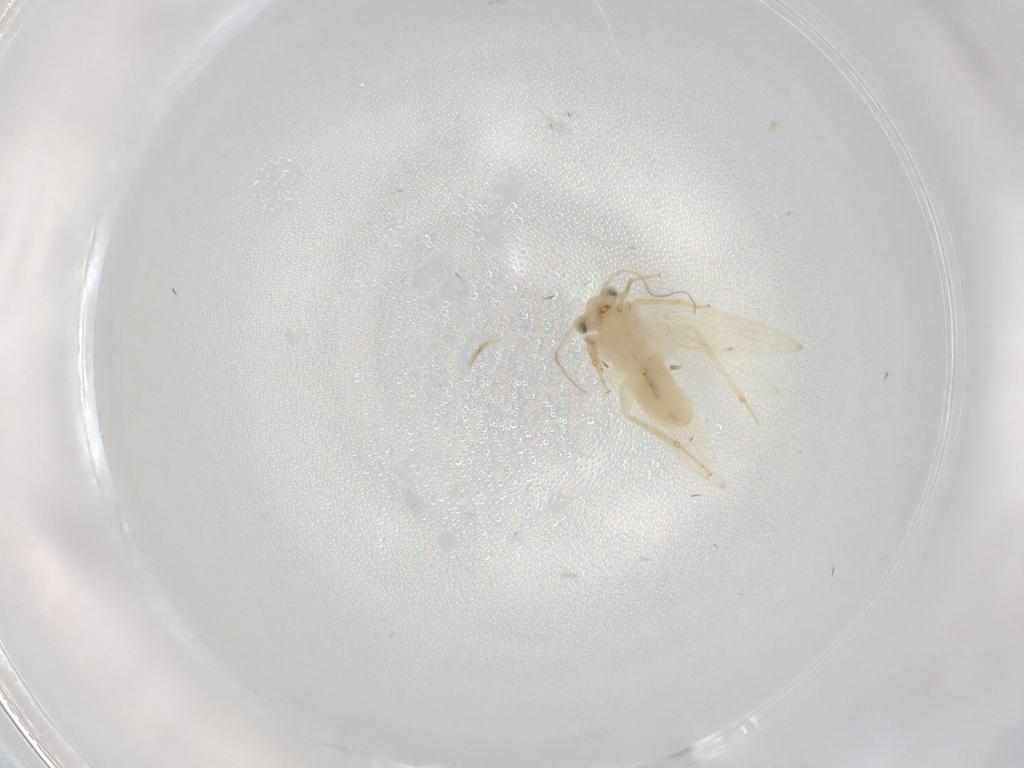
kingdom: Animalia
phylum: Arthropoda
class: Insecta
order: Psocodea
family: Lepidopsocidae
